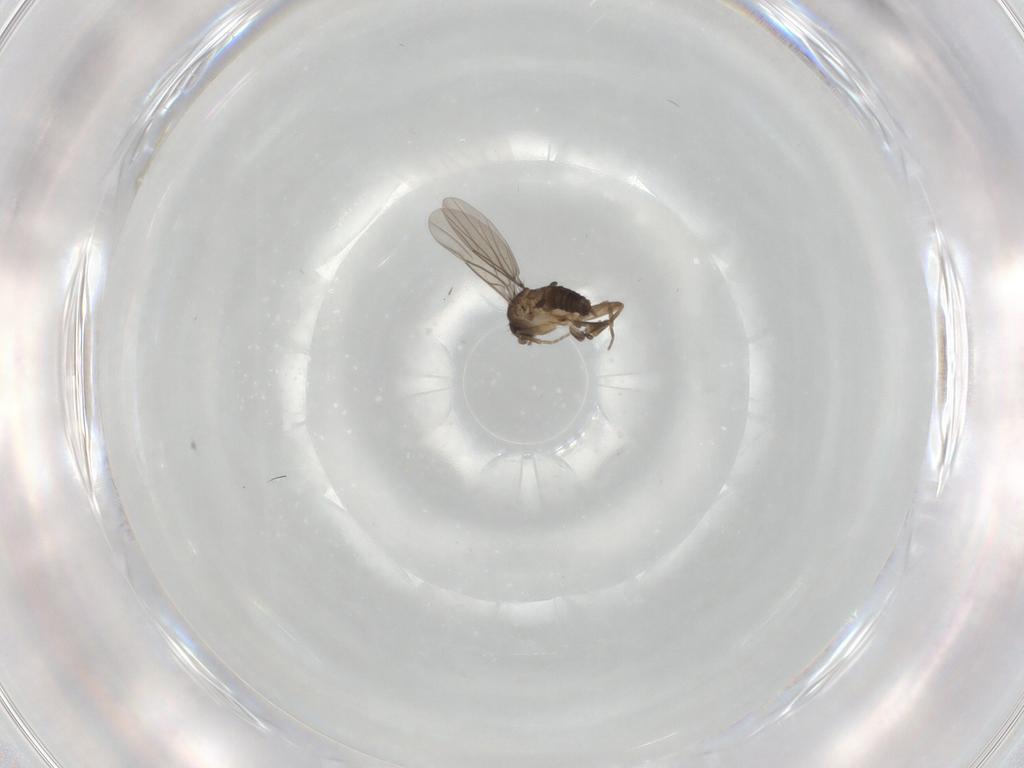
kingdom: Animalia
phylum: Arthropoda
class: Insecta
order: Diptera
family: Phoridae
